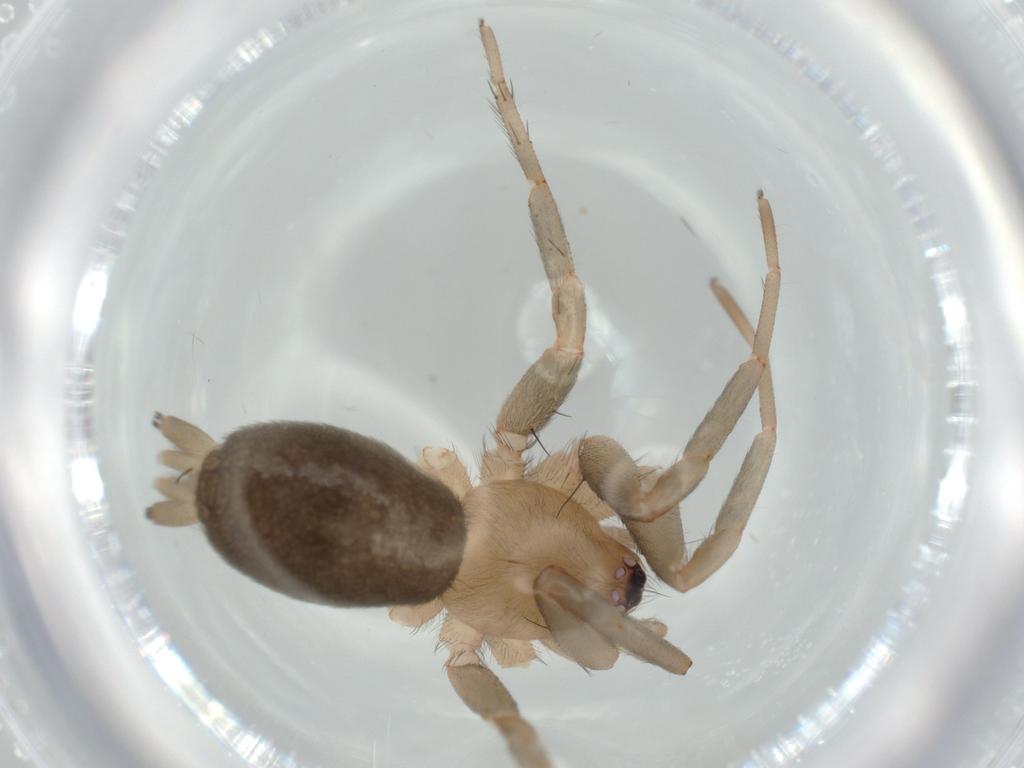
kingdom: Animalia
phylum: Arthropoda
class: Arachnida
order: Araneae
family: Gnaphosidae
